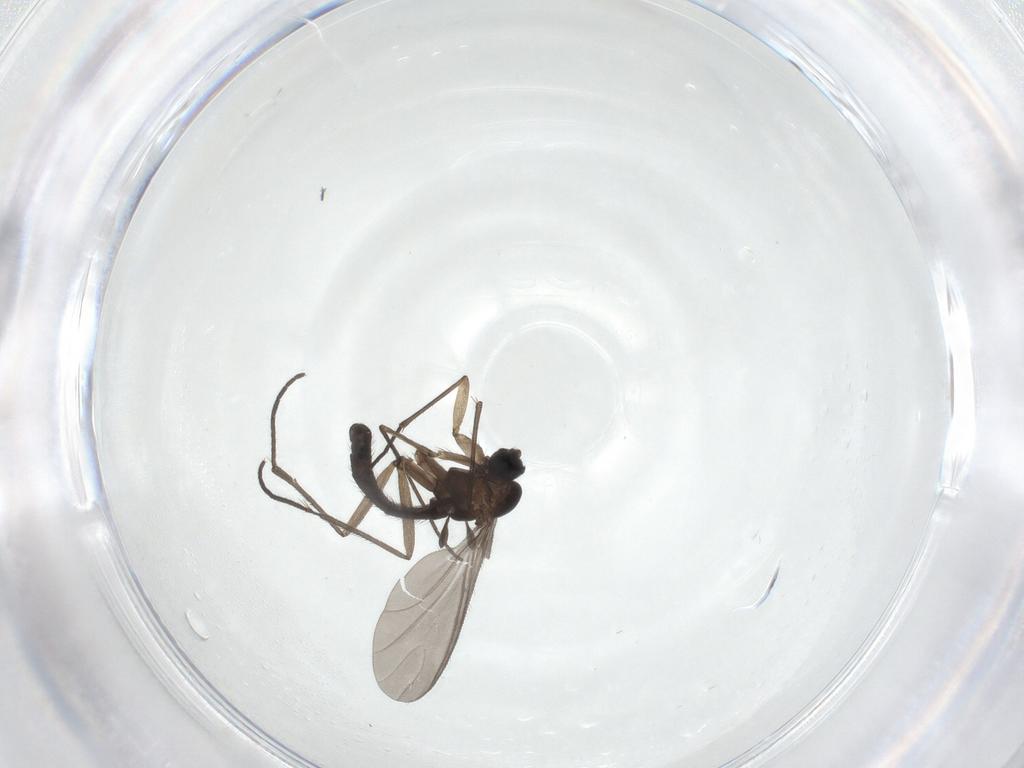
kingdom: Animalia
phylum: Arthropoda
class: Insecta
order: Diptera
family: Sciaridae
